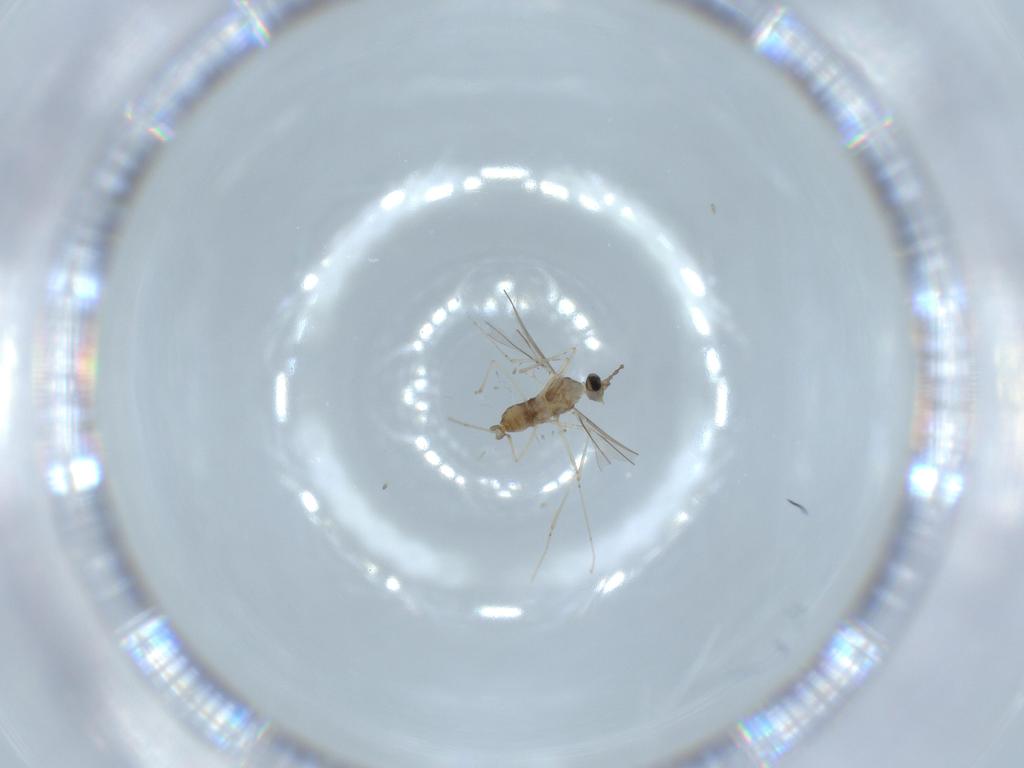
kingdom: Animalia
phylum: Arthropoda
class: Insecta
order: Diptera
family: Cecidomyiidae
